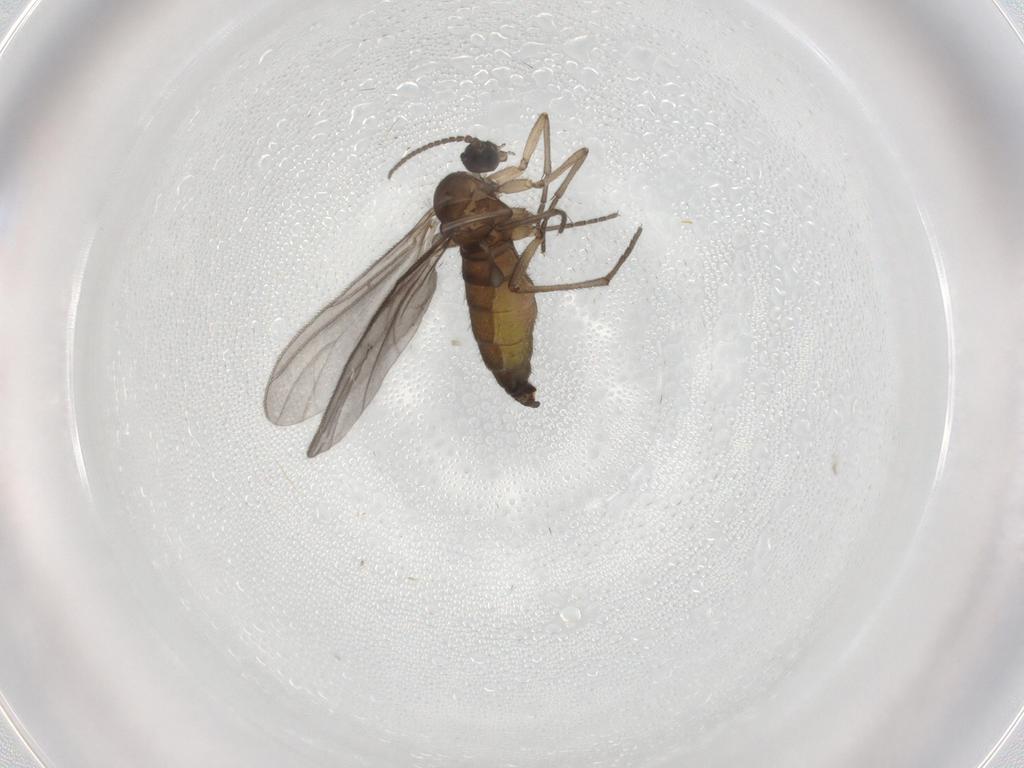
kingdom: Animalia
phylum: Arthropoda
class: Insecta
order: Diptera
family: Sciaridae
